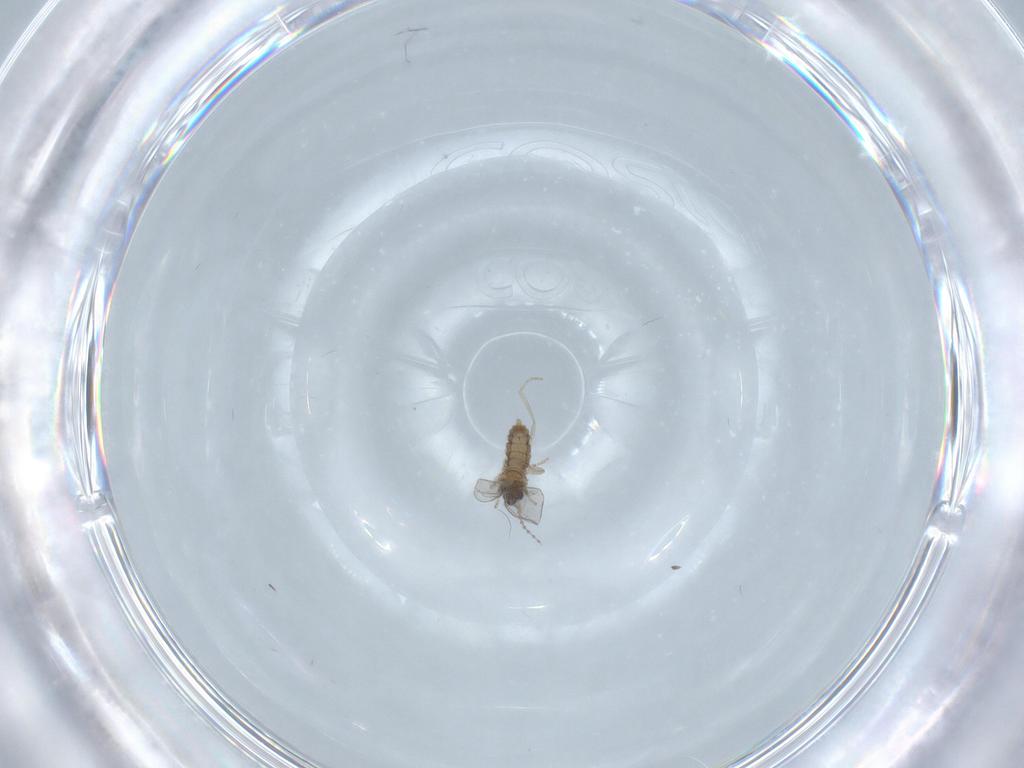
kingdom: Animalia
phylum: Arthropoda
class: Insecta
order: Diptera
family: Cecidomyiidae
